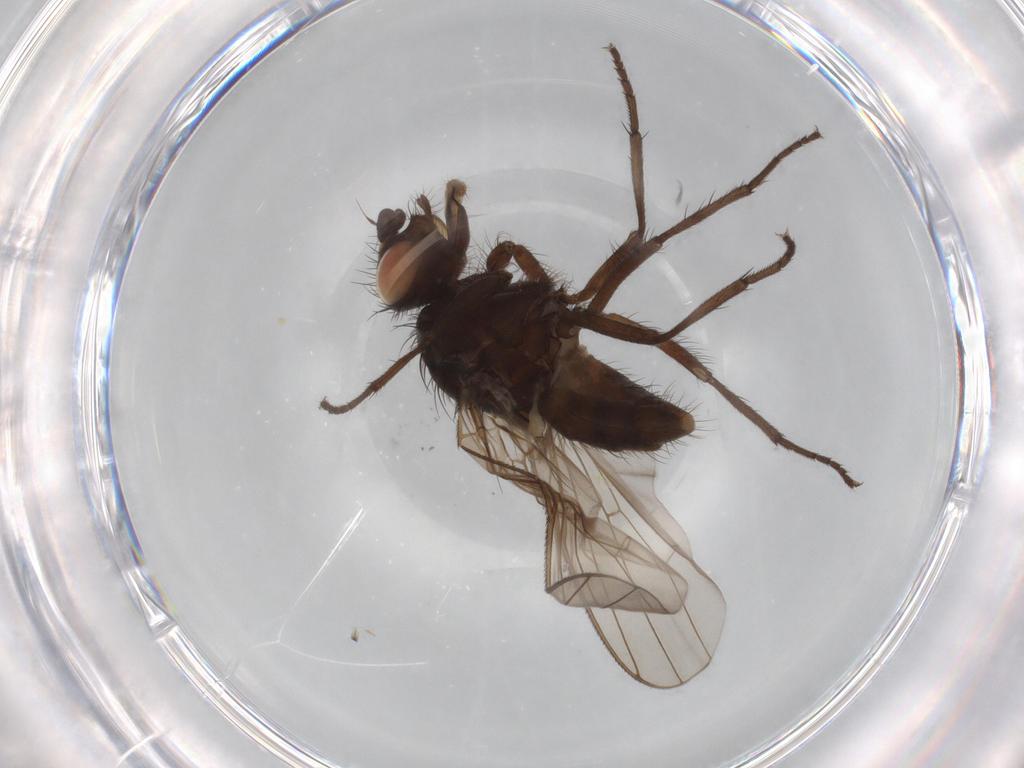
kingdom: Animalia
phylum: Arthropoda
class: Insecta
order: Diptera
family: Anthomyiidae
